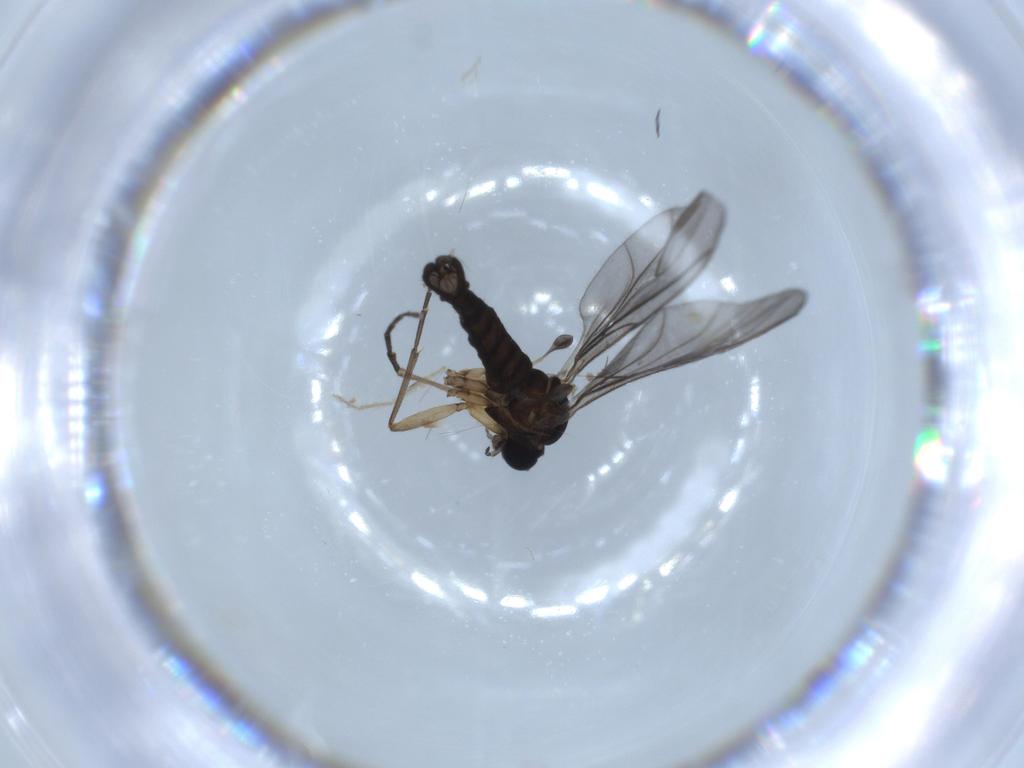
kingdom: Animalia
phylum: Arthropoda
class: Insecta
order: Diptera
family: Sciaridae
